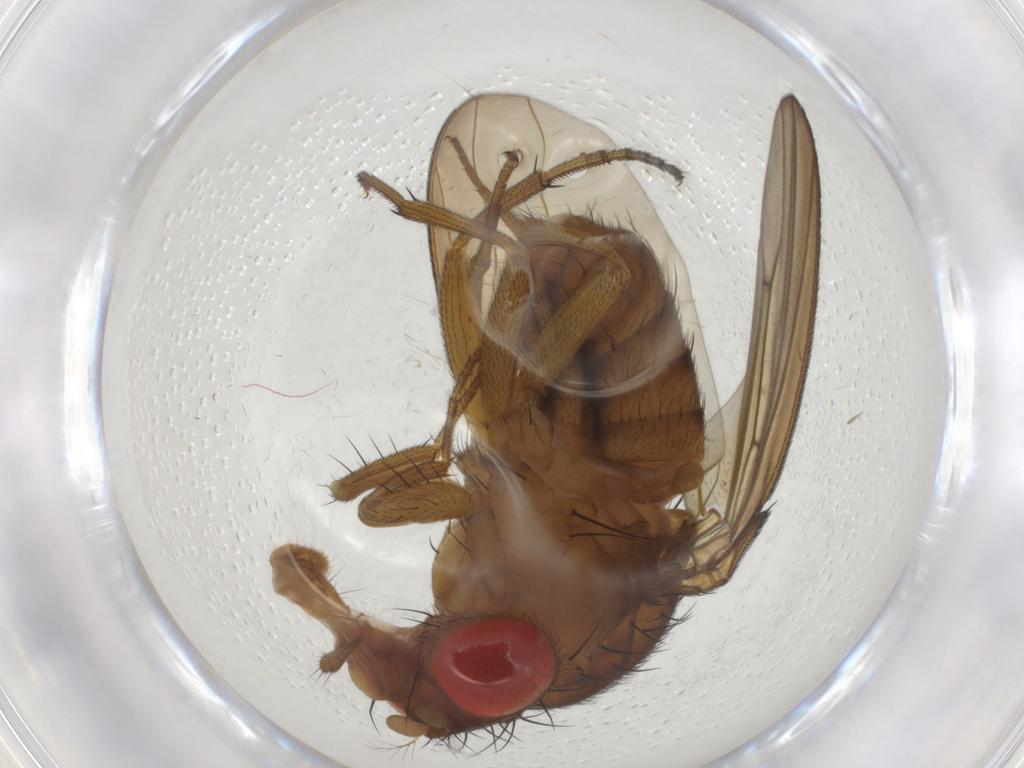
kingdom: Animalia
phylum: Arthropoda
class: Insecta
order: Diptera
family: Drosophilidae
